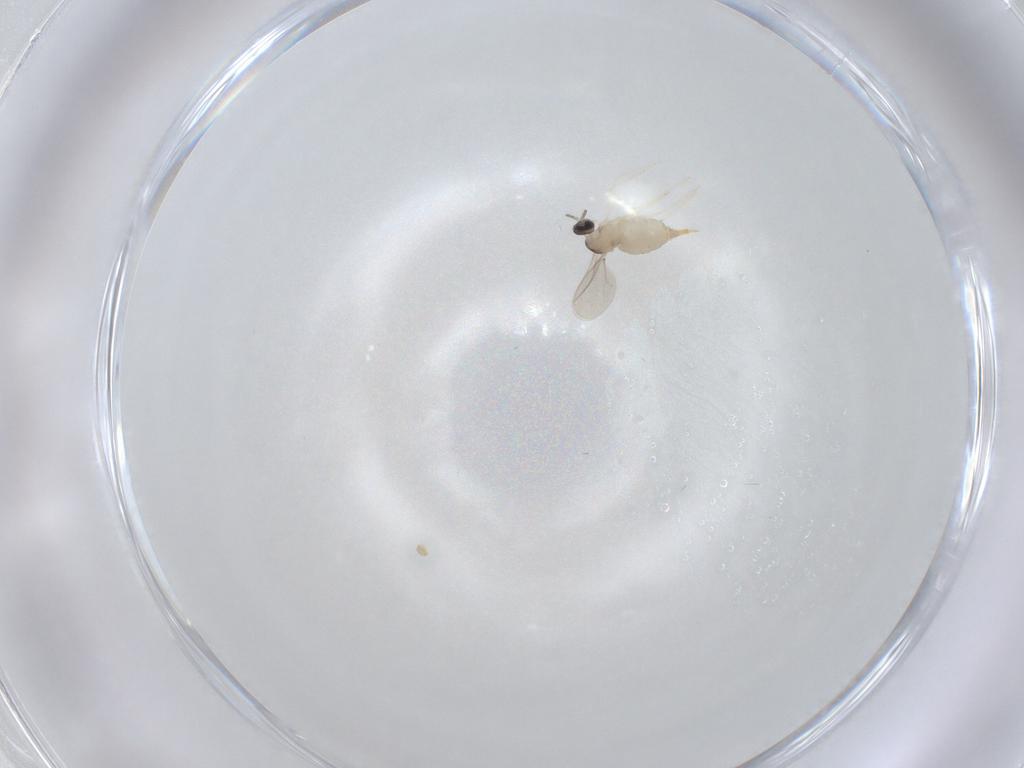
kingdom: Animalia
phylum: Arthropoda
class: Insecta
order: Diptera
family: Cecidomyiidae
